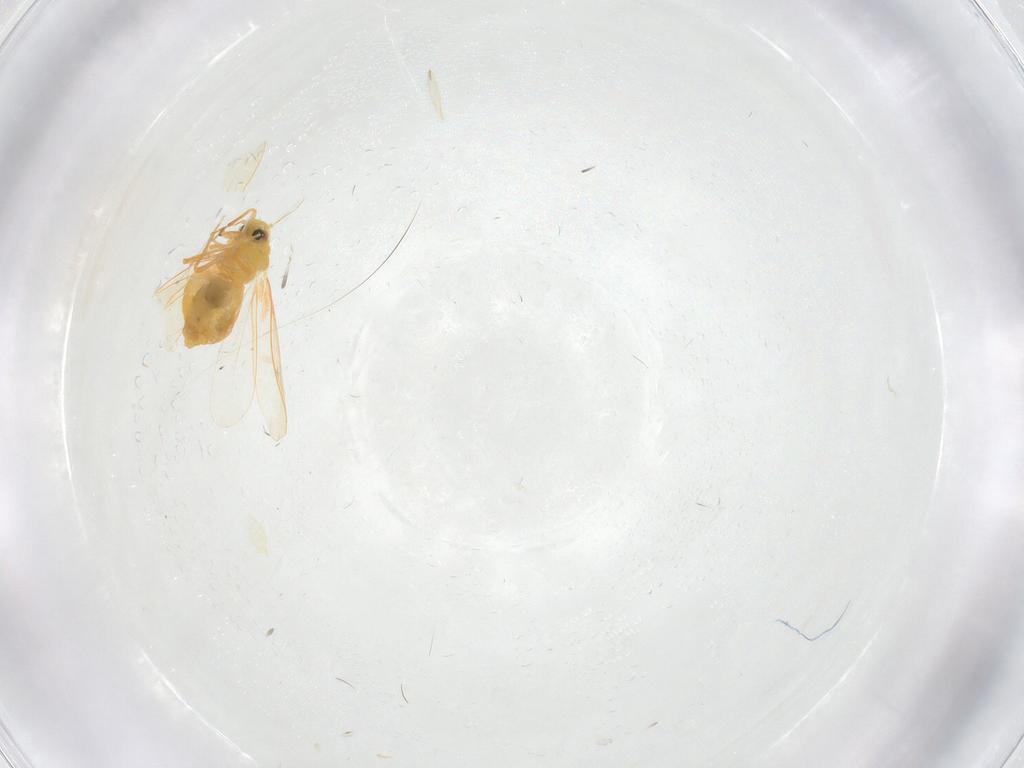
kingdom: Animalia
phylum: Arthropoda
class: Insecta
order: Hemiptera
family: Aleyrodidae
